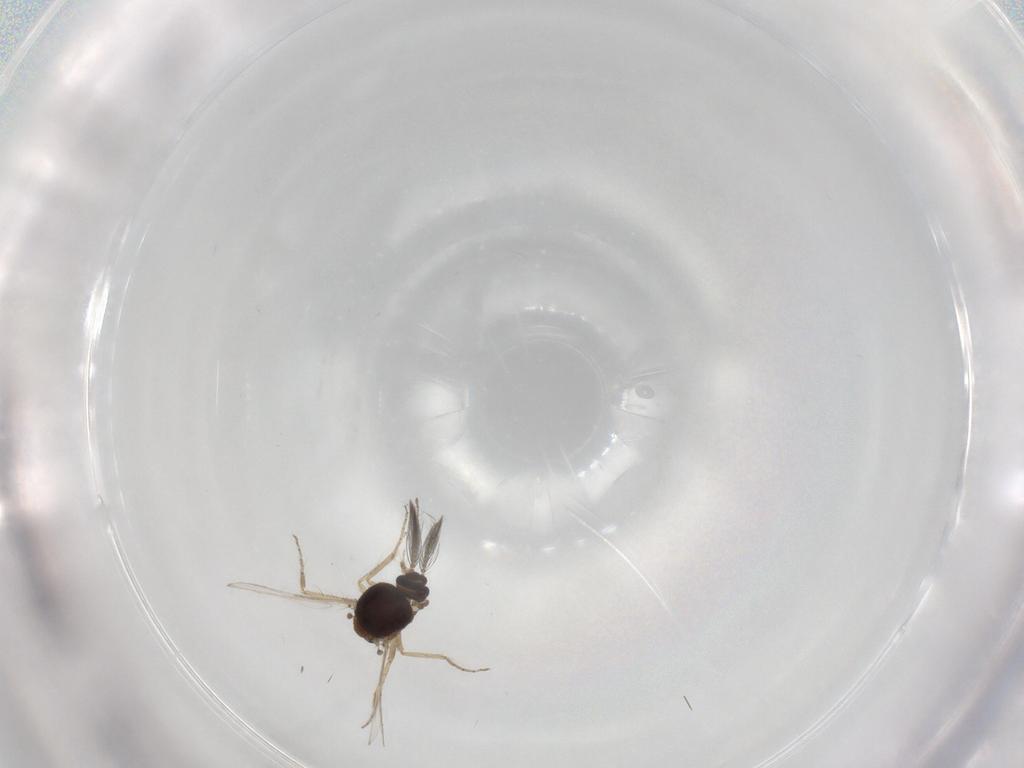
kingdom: Animalia
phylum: Arthropoda
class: Insecta
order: Diptera
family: Ceratopogonidae
